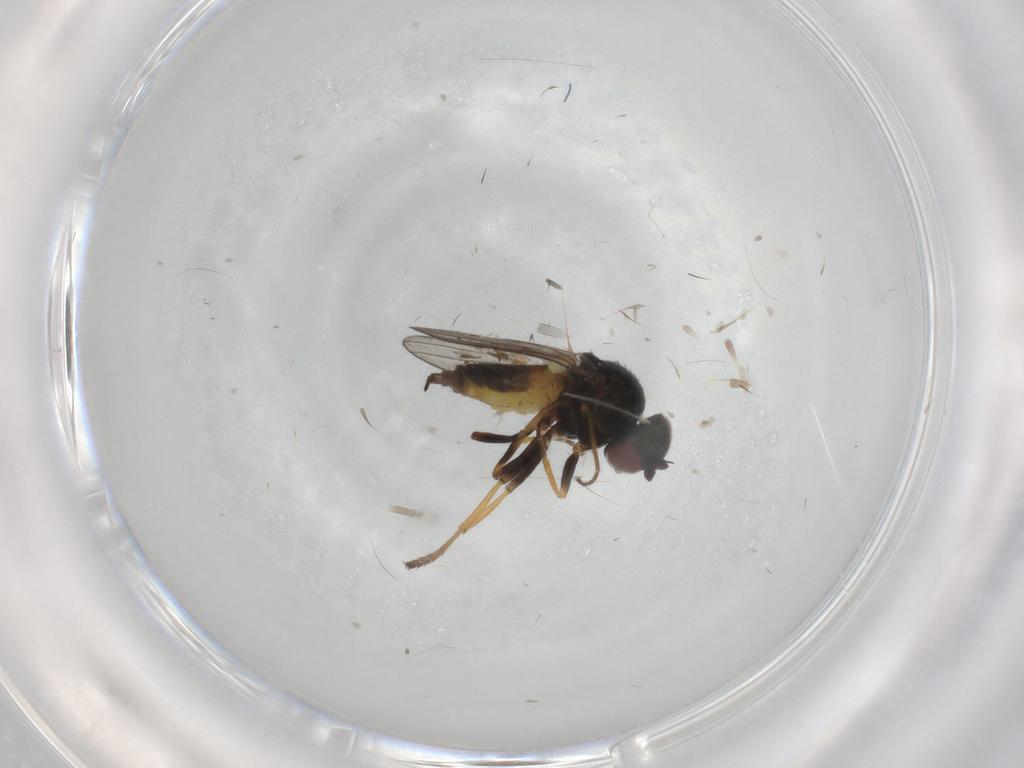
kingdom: Animalia
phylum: Arthropoda
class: Insecta
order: Diptera
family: Chloropidae
